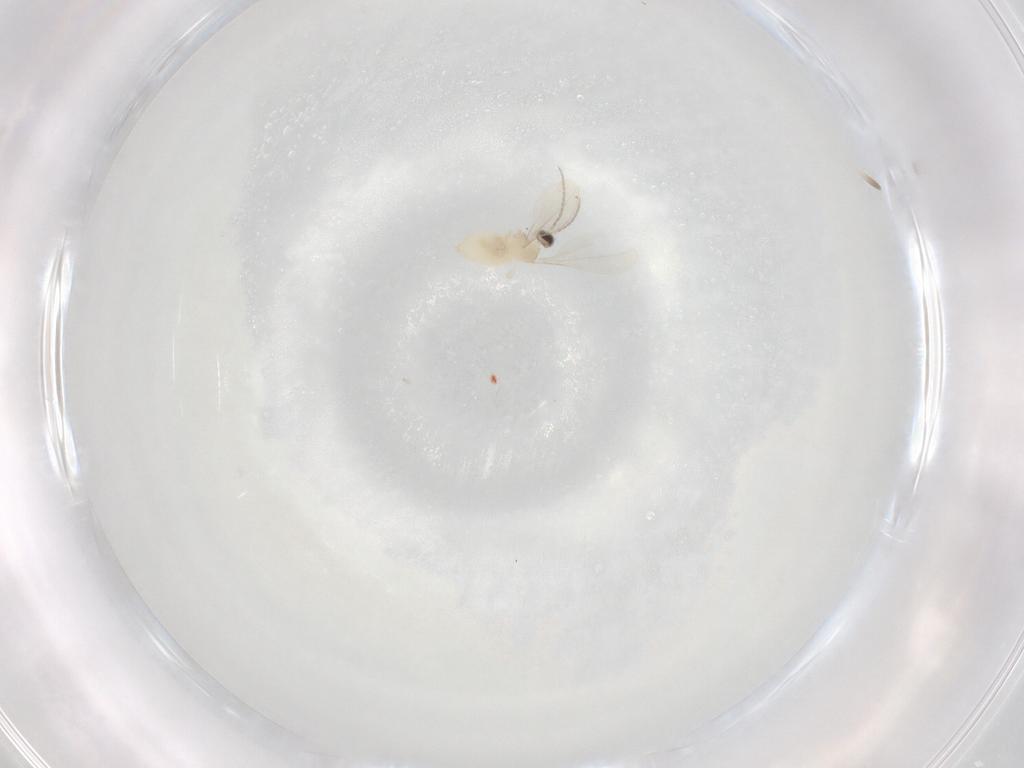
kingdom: Animalia
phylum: Arthropoda
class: Insecta
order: Diptera
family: Cecidomyiidae
